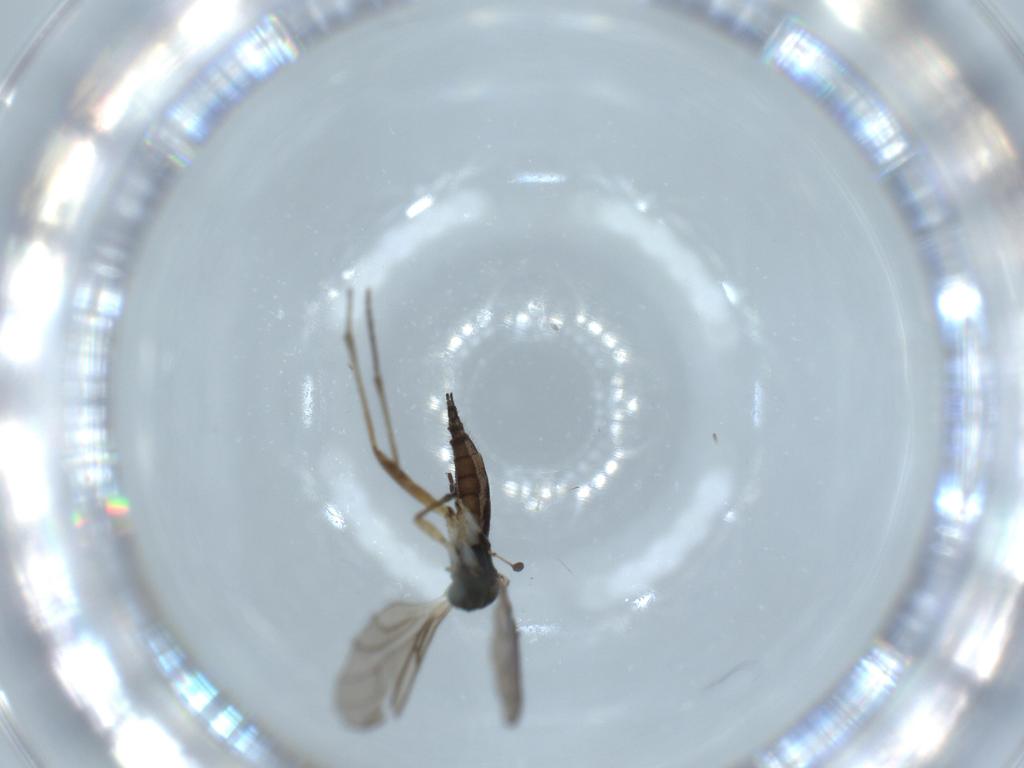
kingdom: Animalia
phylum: Arthropoda
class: Insecta
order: Diptera
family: Sciaridae
